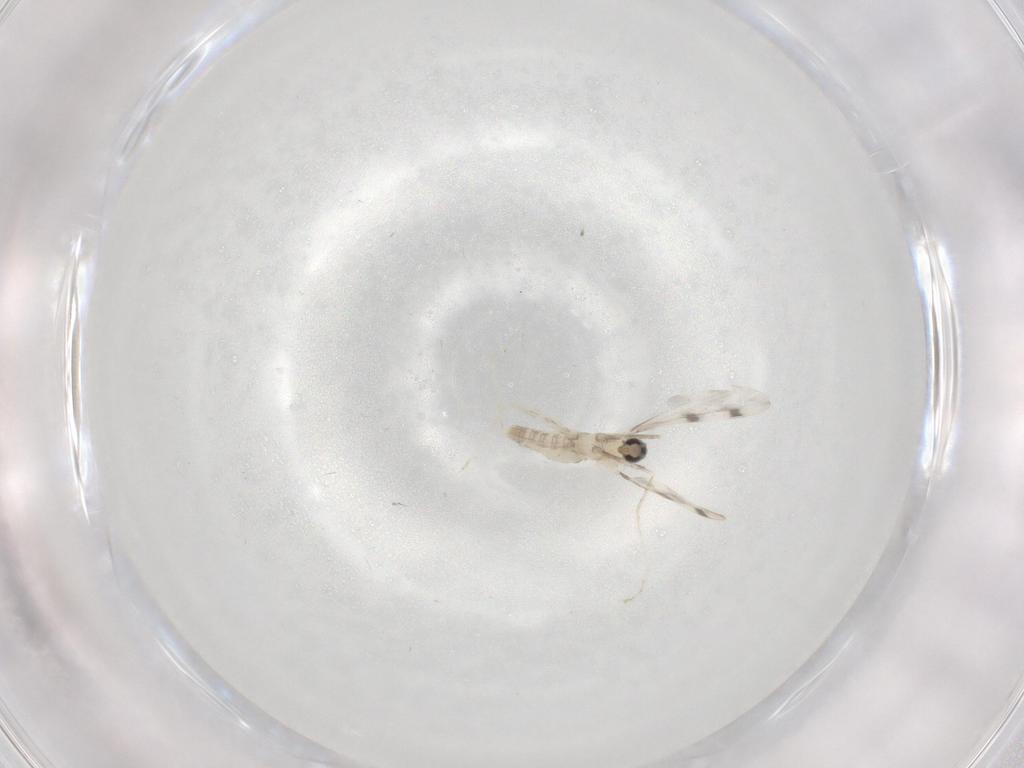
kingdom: Animalia
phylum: Arthropoda
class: Insecta
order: Diptera
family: Cecidomyiidae
